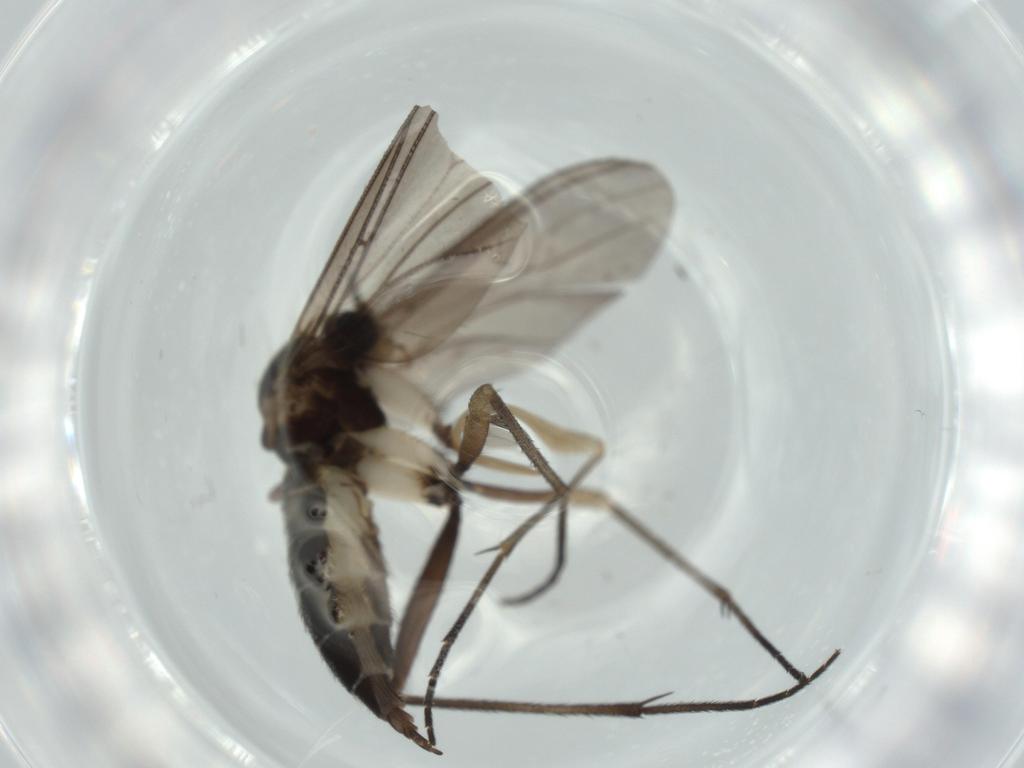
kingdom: Animalia
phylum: Arthropoda
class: Insecta
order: Diptera
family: Sciaridae
